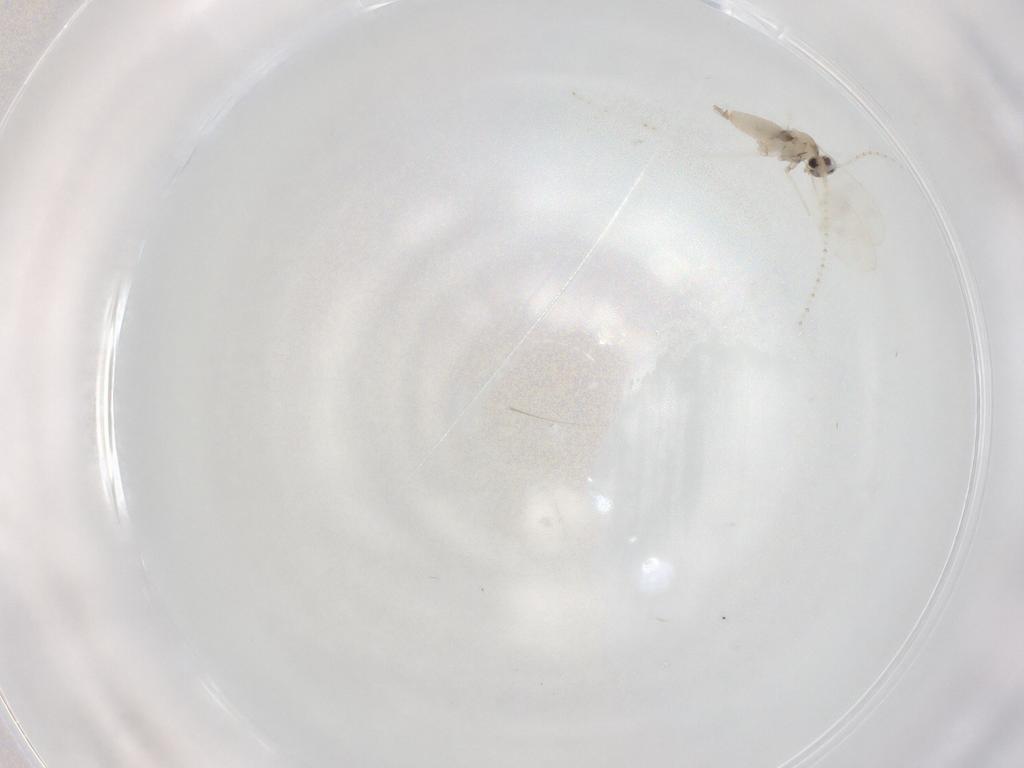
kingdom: Animalia
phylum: Arthropoda
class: Insecta
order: Diptera
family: Cecidomyiidae
